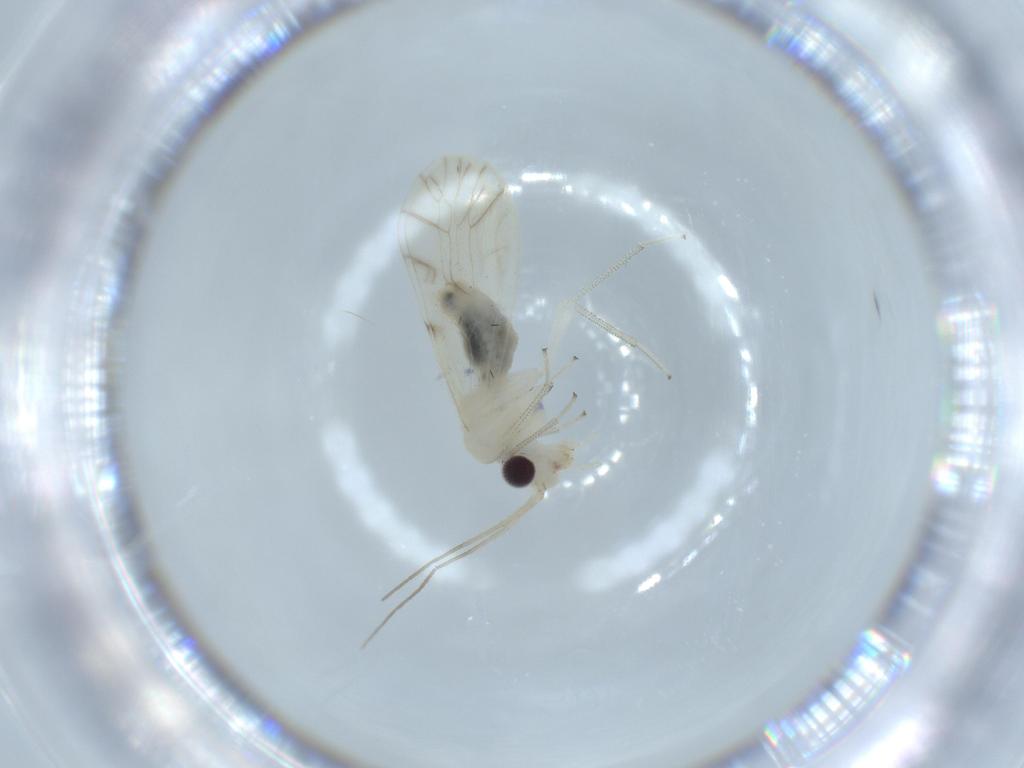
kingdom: Animalia
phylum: Arthropoda
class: Insecta
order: Psocodea
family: Caeciliusidae
